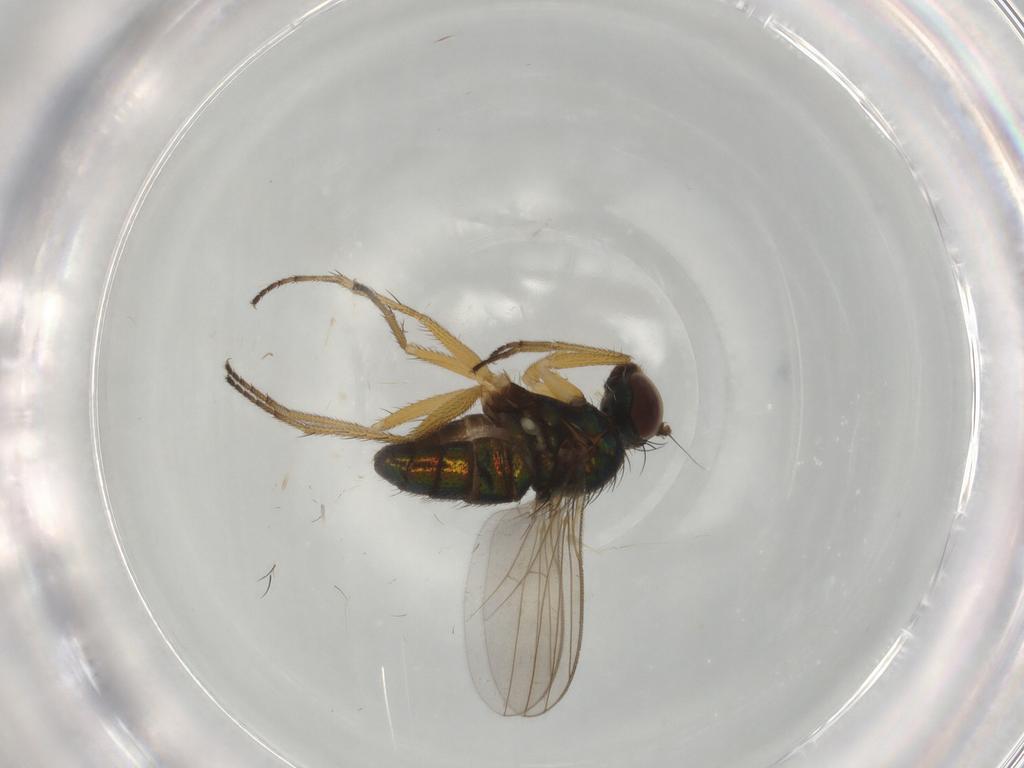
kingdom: Animalia
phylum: Arthropoda
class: Insecta
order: Diptera
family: Dolichopodidae
